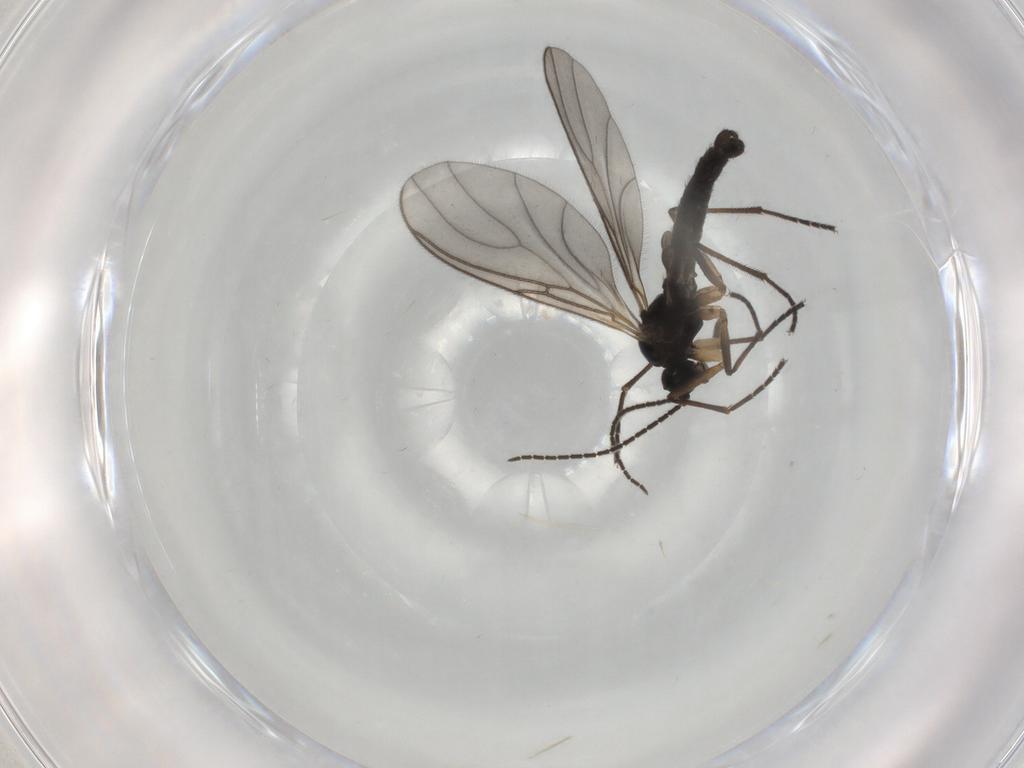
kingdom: Animalia
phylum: Arthropoda
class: Insecta
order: Diptera
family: Sciaridae
